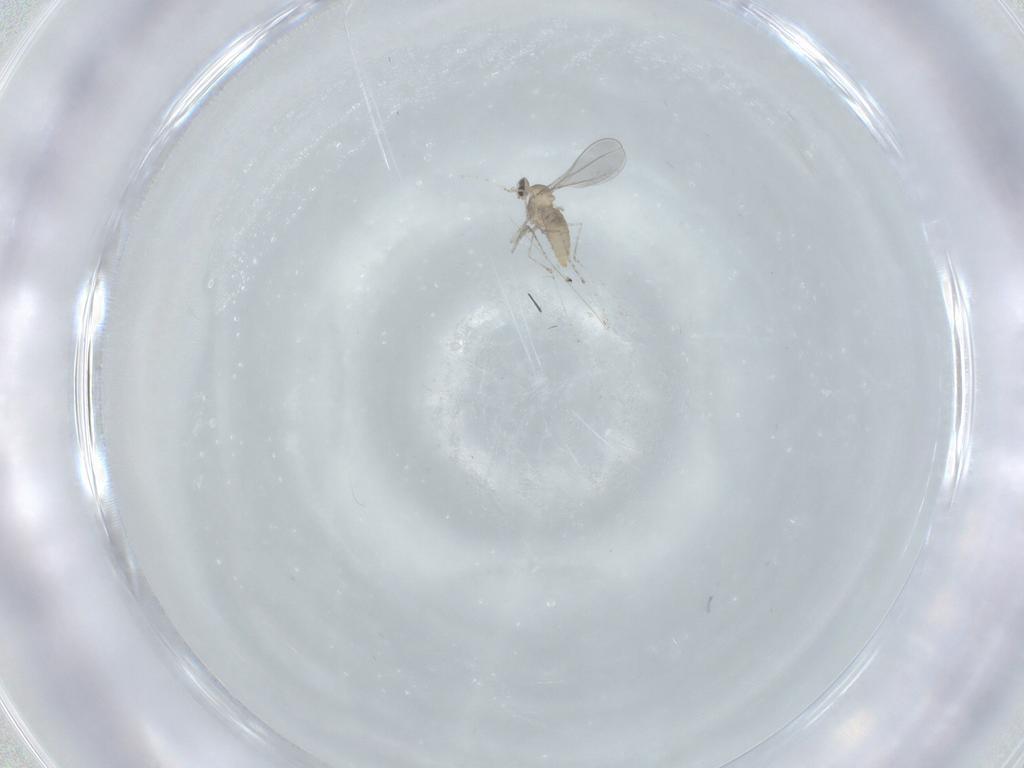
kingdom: Animalia
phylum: Arthropoda
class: Insecta
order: Diptera
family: Cecidomyiidae
